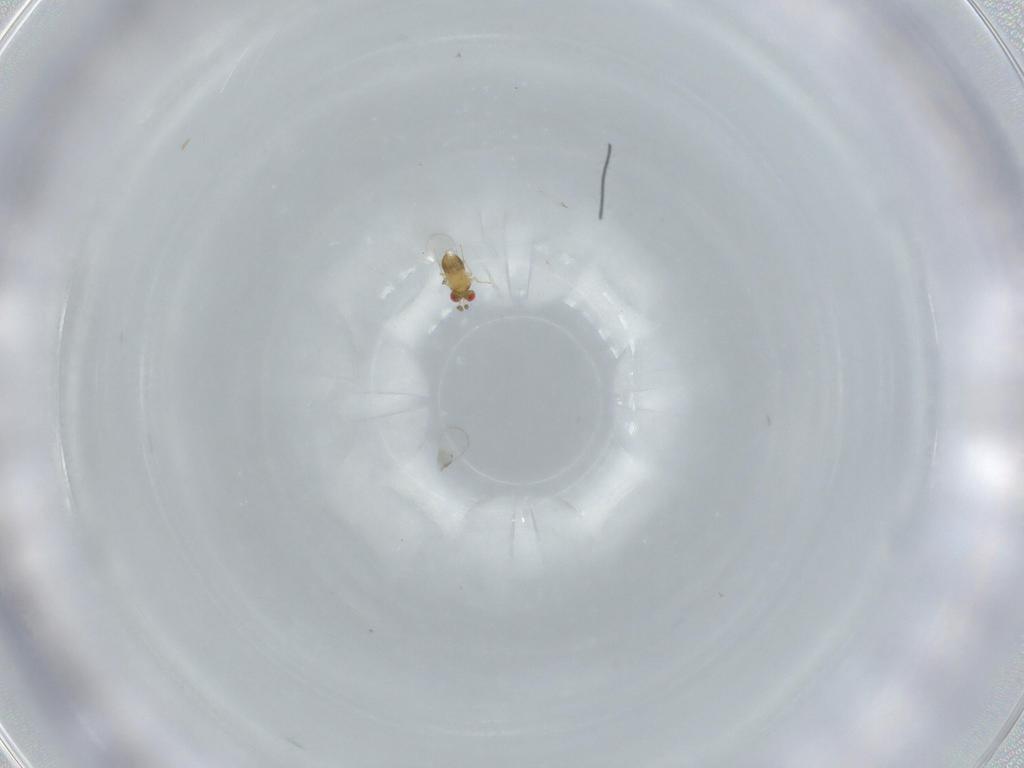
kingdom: Animalia
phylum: Arthropoda
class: Insecta
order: Hymenoptera
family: Trichogrammatidae
